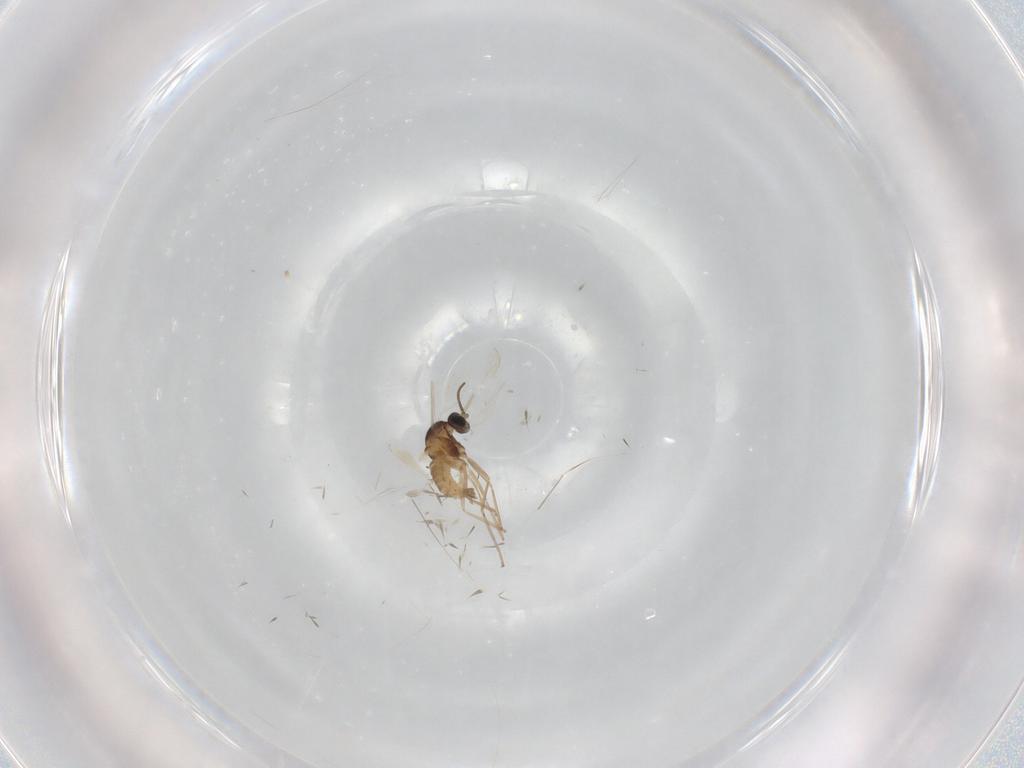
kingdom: Animalia
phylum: Arthropoda
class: Insecta
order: Diptera
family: Cecidomyiidae
